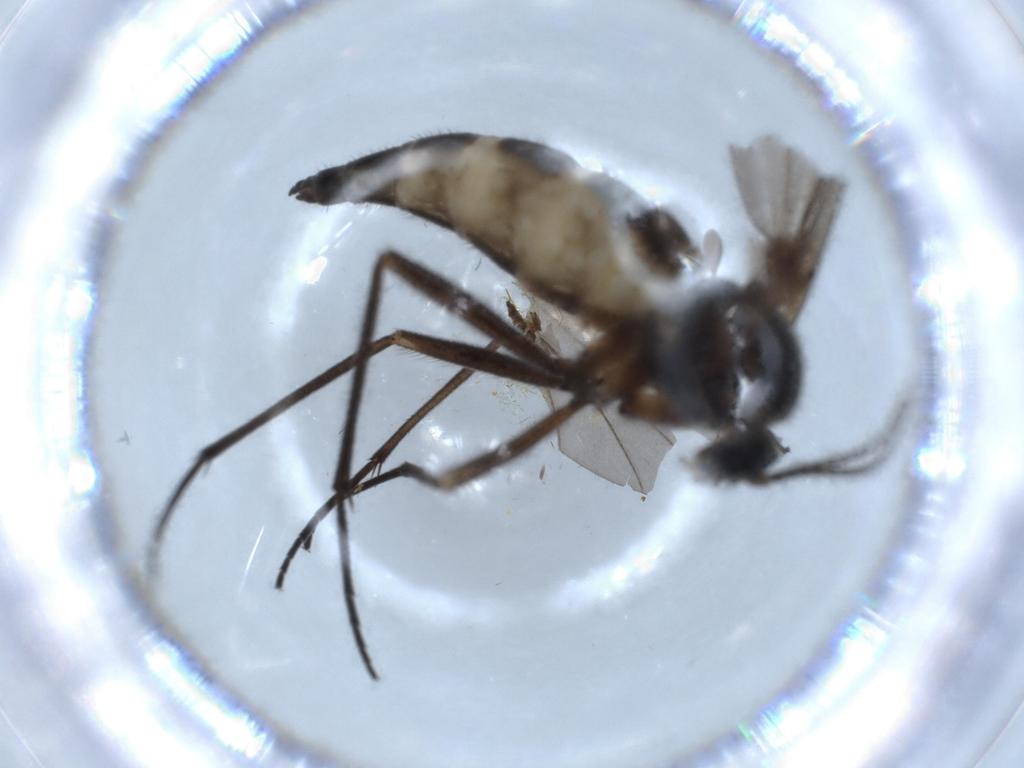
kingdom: Animalia
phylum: Arthropoda
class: Insecta
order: Diptera
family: Sciaridae
